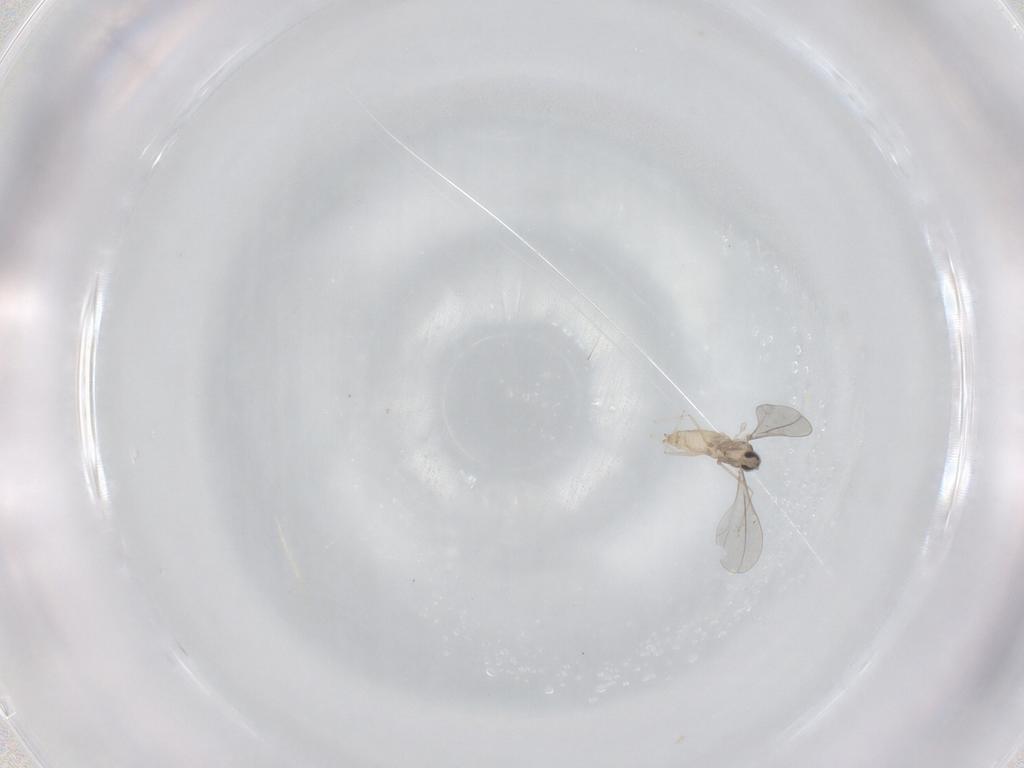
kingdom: Animalia
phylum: Arthropoda
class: Insecta
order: Diptera
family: Cecidomyiidae
